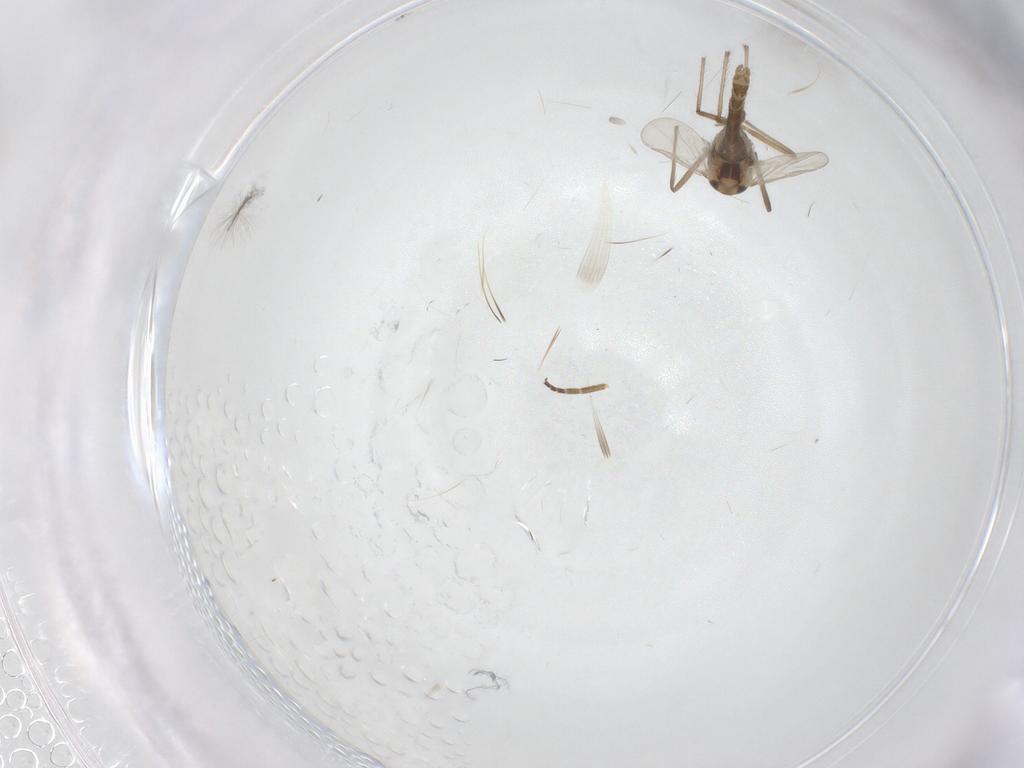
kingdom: Animalia
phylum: Arthropoda
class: Insecta
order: Diptera
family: Chironomidae
